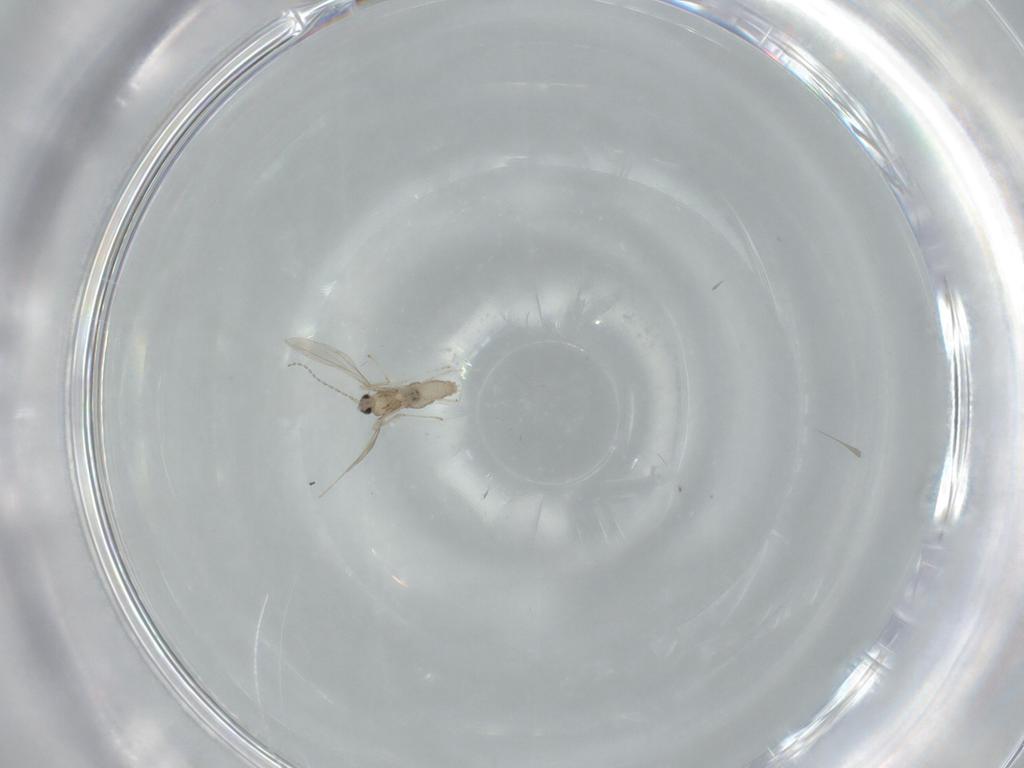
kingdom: Animalia
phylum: Arthropoda
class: Insecta
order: Diptera
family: Cecidomyiidae
